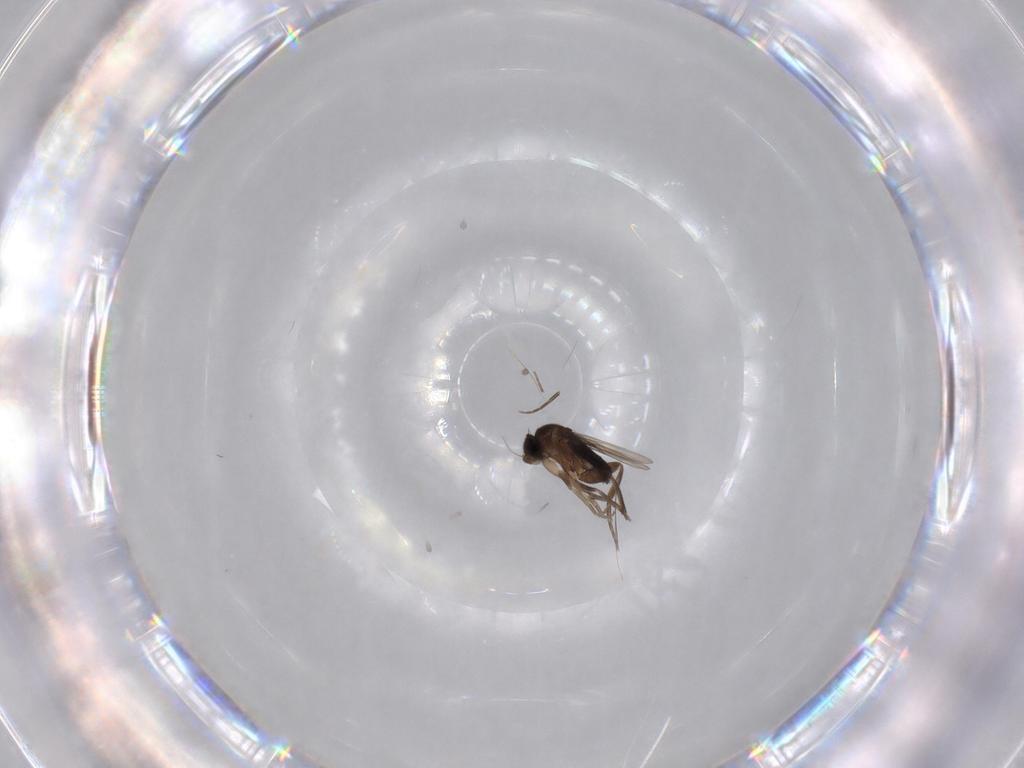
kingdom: Animalia
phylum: Arthropoda
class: Insecta
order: Diptera
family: Phoridae
